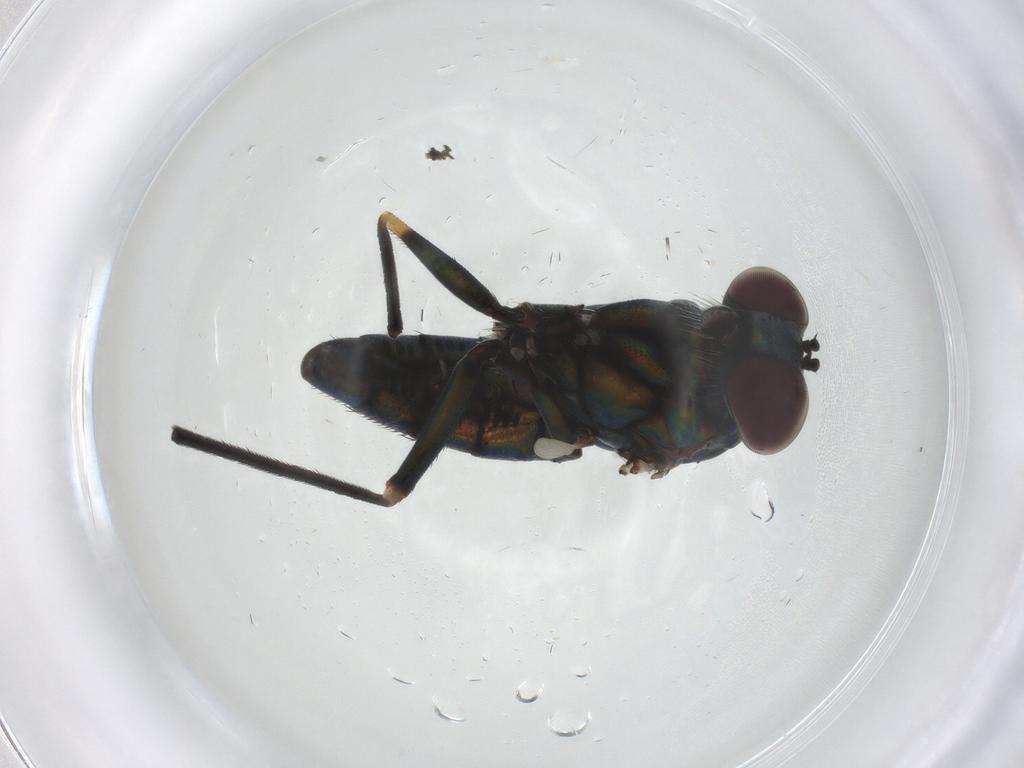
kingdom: Animalia
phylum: Arthropoda
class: Insecta
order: Diptera
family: Dolichopodidae
